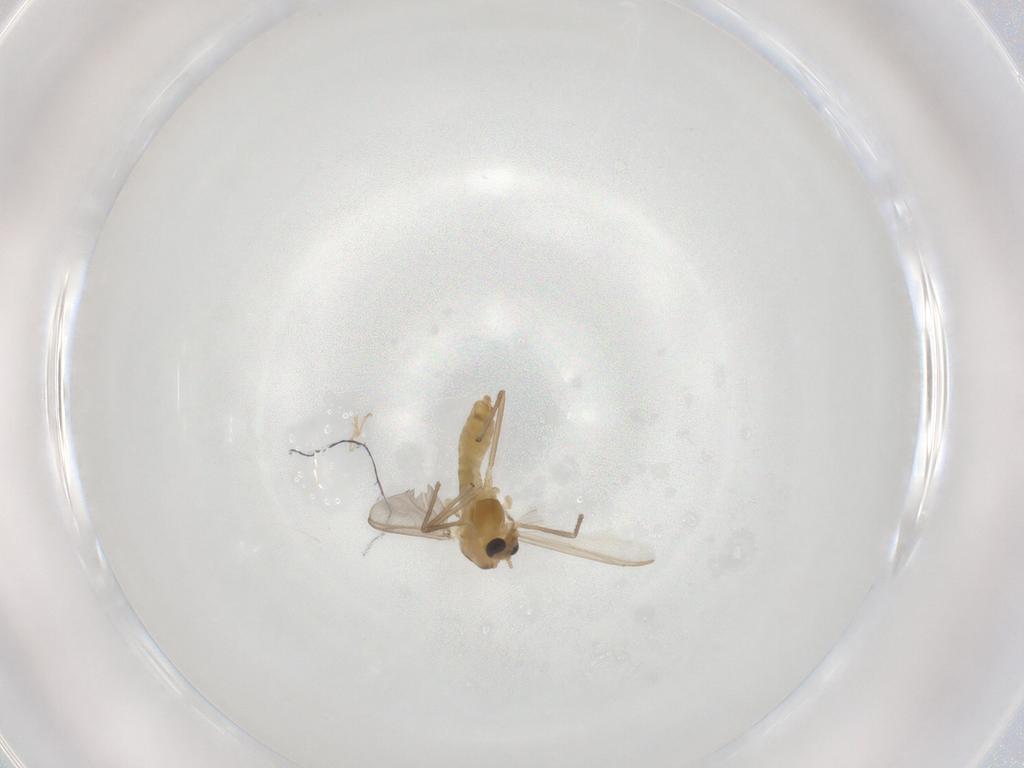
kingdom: Animalia
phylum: Arthropoda
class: Insecta
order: Diptera
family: Chironomidae
